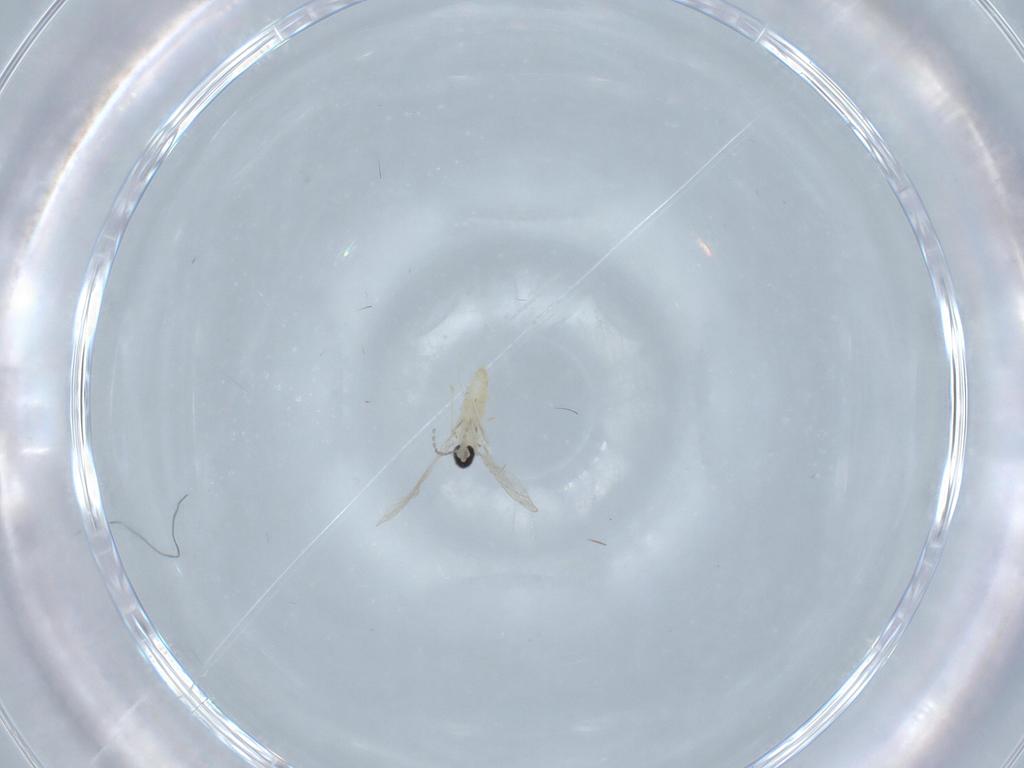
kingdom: Animalia
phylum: Arthropoda
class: Insecta
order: Diptera
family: Cecidomyiidae
